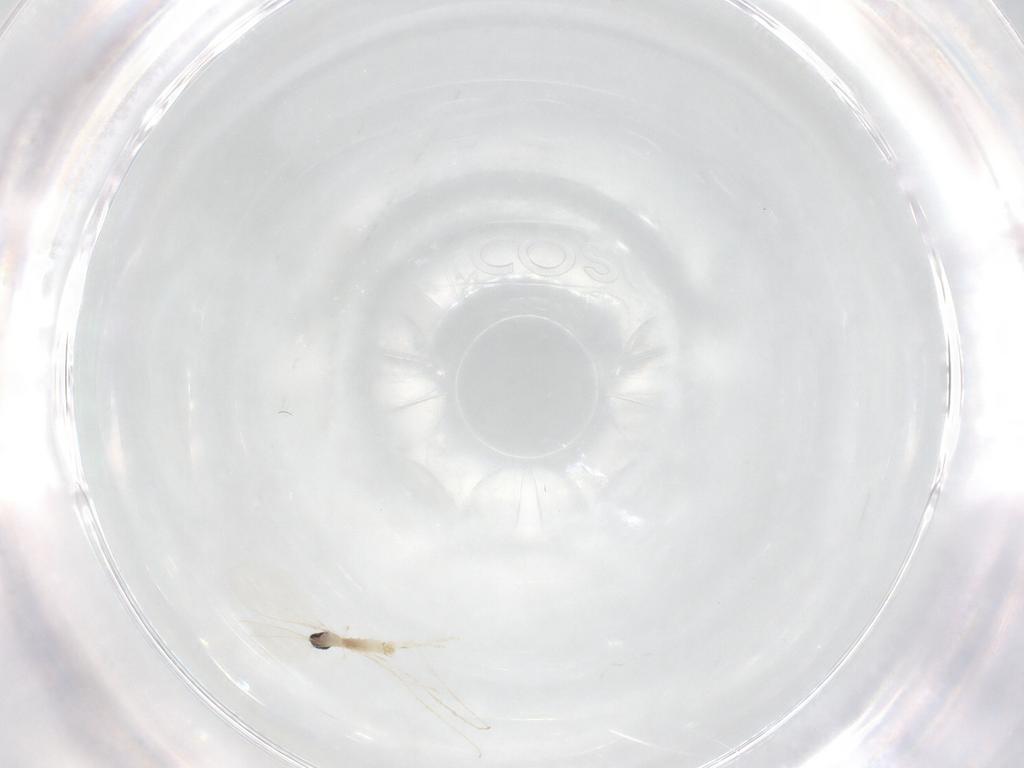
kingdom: Animalia
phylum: Arthropoda
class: Insecta
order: Diptera
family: Cecidomyiidae
